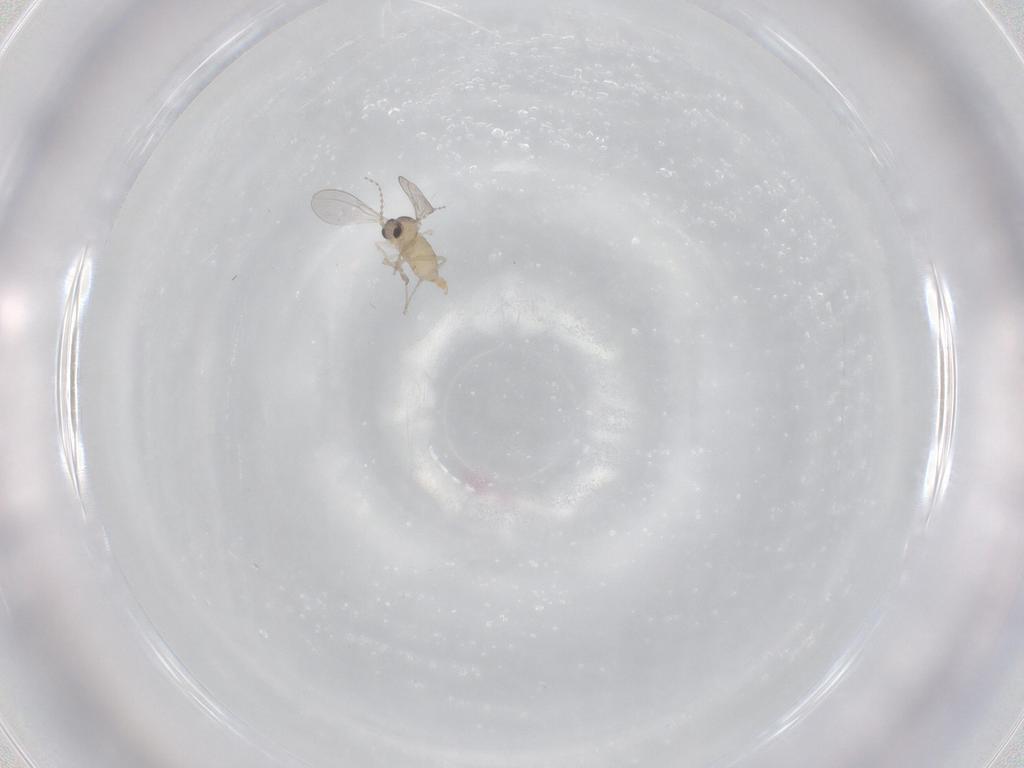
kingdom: Animalia
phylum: Arthropoda
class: Insecta
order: Diptera
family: Cecidomyiidae
